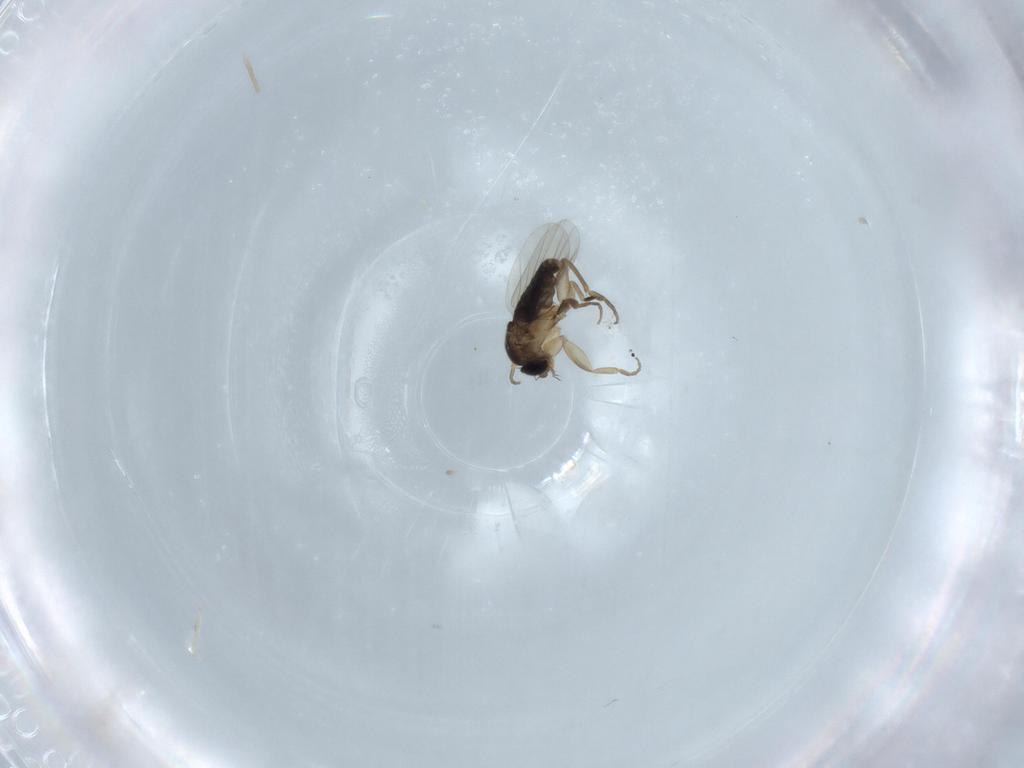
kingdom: Animalia
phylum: Arthropoda
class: Insecta
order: Diptera
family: Phoridae
